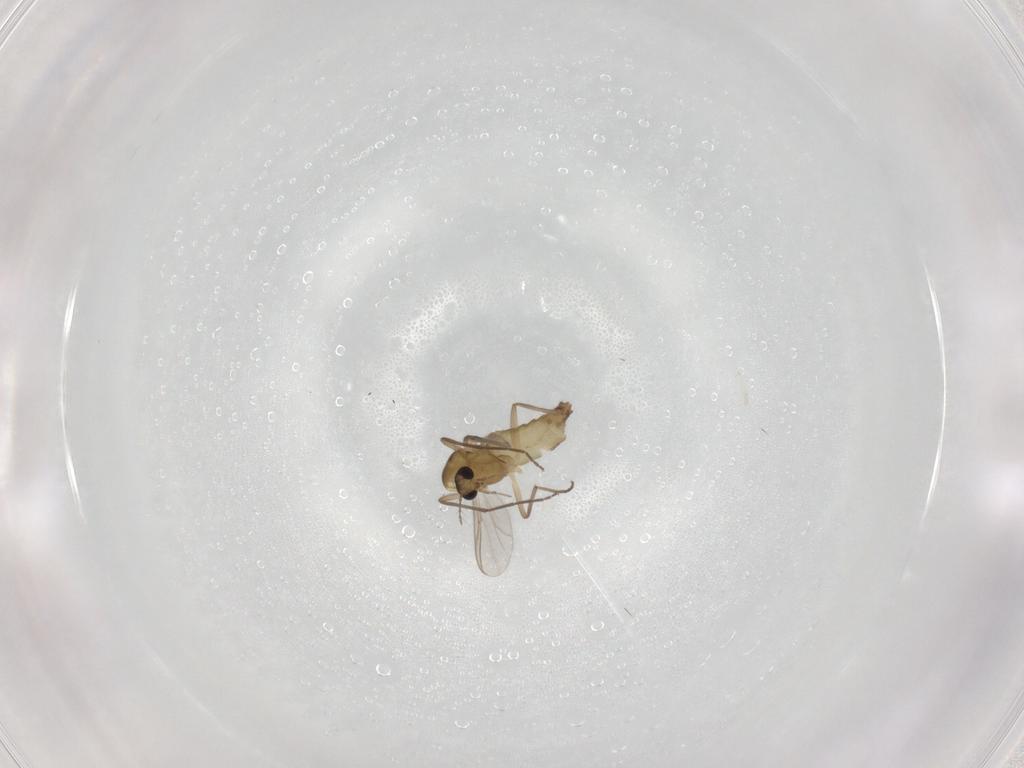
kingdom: Animalia
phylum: Arthropoda
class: Insecta
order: Diptera
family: Chironomidae
